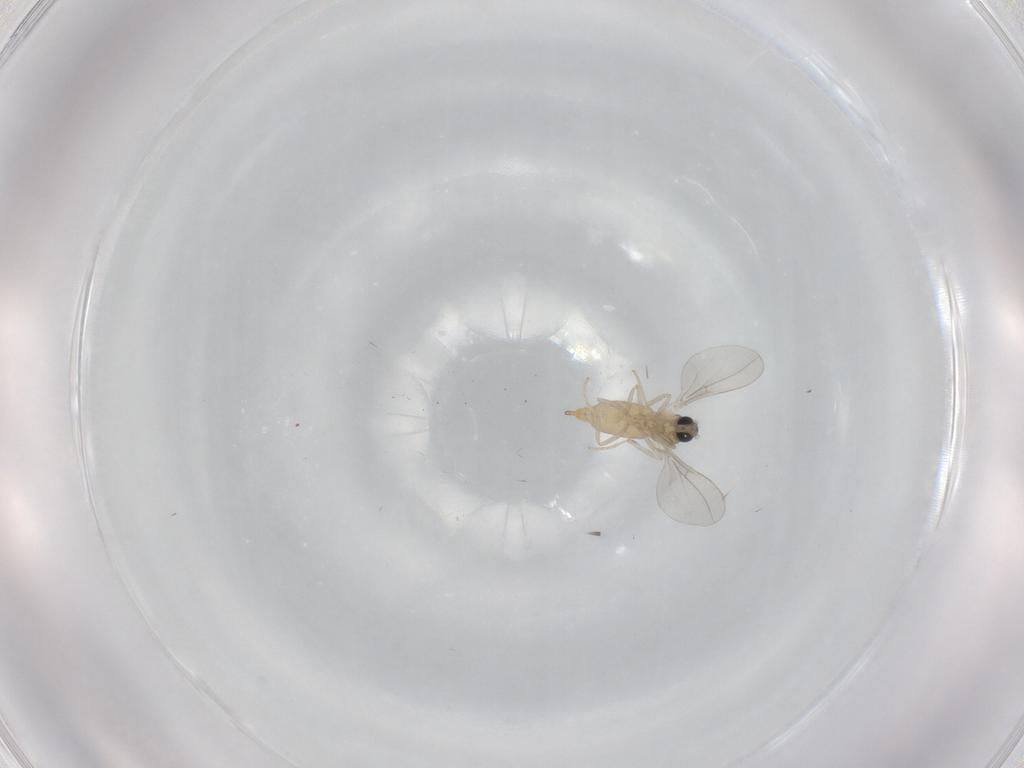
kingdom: Animalia
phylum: Arthropoda
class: Insecta
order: Diptera
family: Cecidomyiidae
